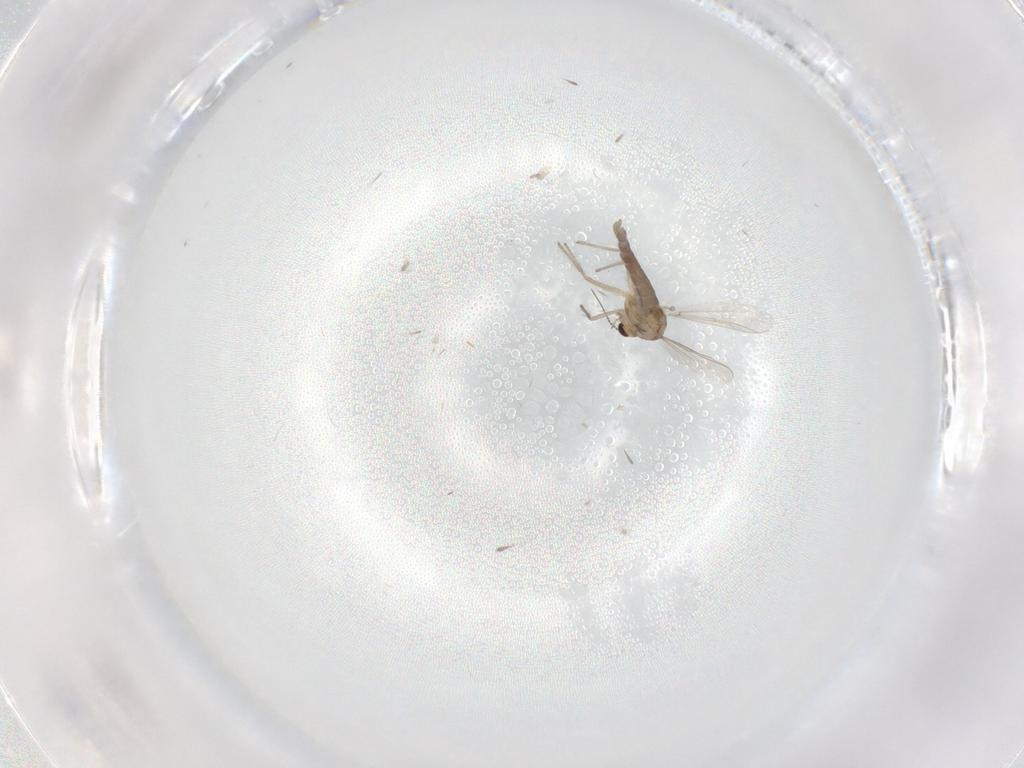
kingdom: Animalia
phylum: Arthropoda
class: Insecta
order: Diptera
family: Chironomidae
